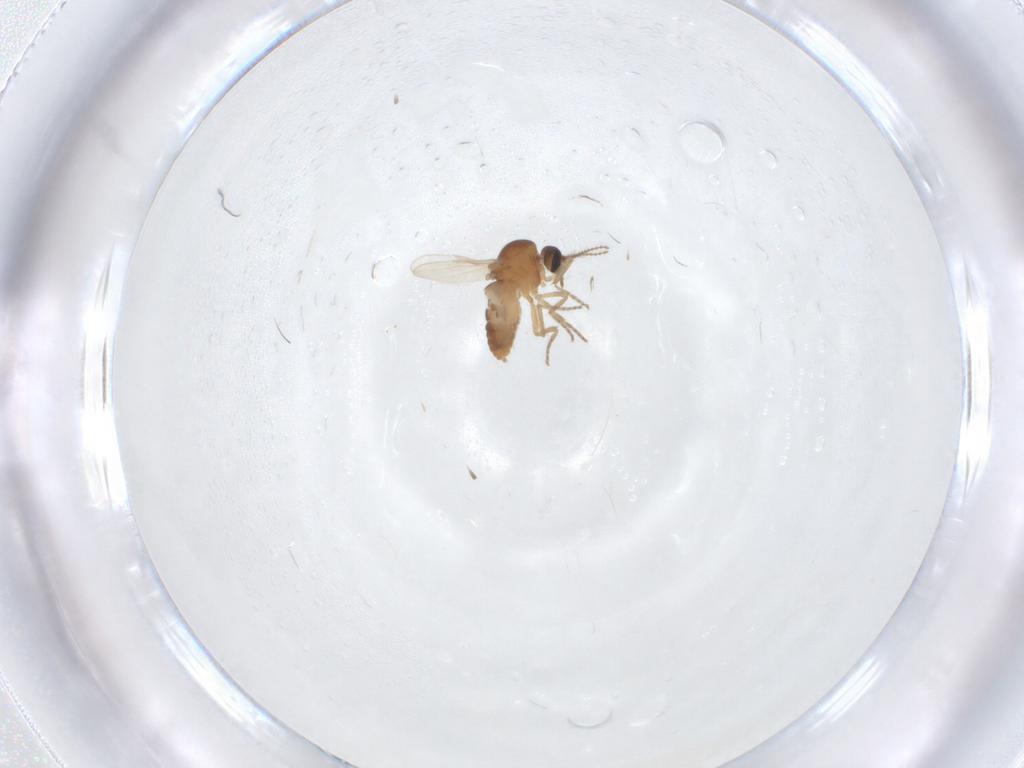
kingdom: Animalia
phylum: Arthropoda
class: Insecta
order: Diptera
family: Ceratopogonidae
